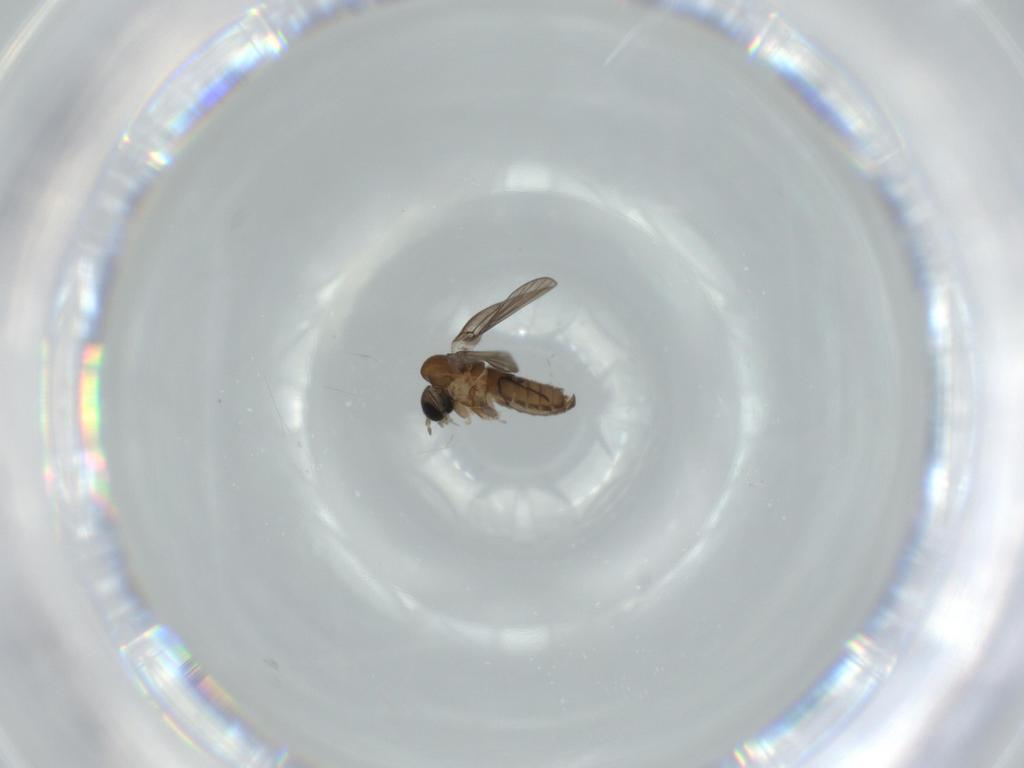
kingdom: Animalia
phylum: Arthropoda
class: Insecta
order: Diptera
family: Psychodidae
